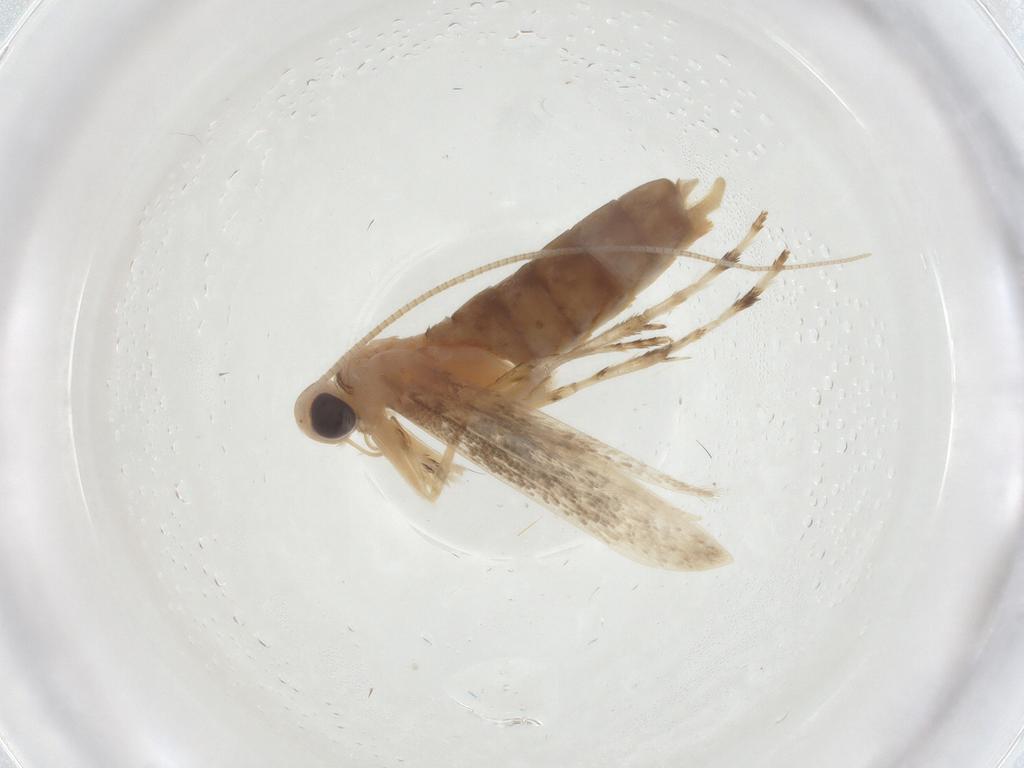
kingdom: Animalia
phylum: Arthropoda
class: Insecta
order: Lepidoptera
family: Gracillariidae
